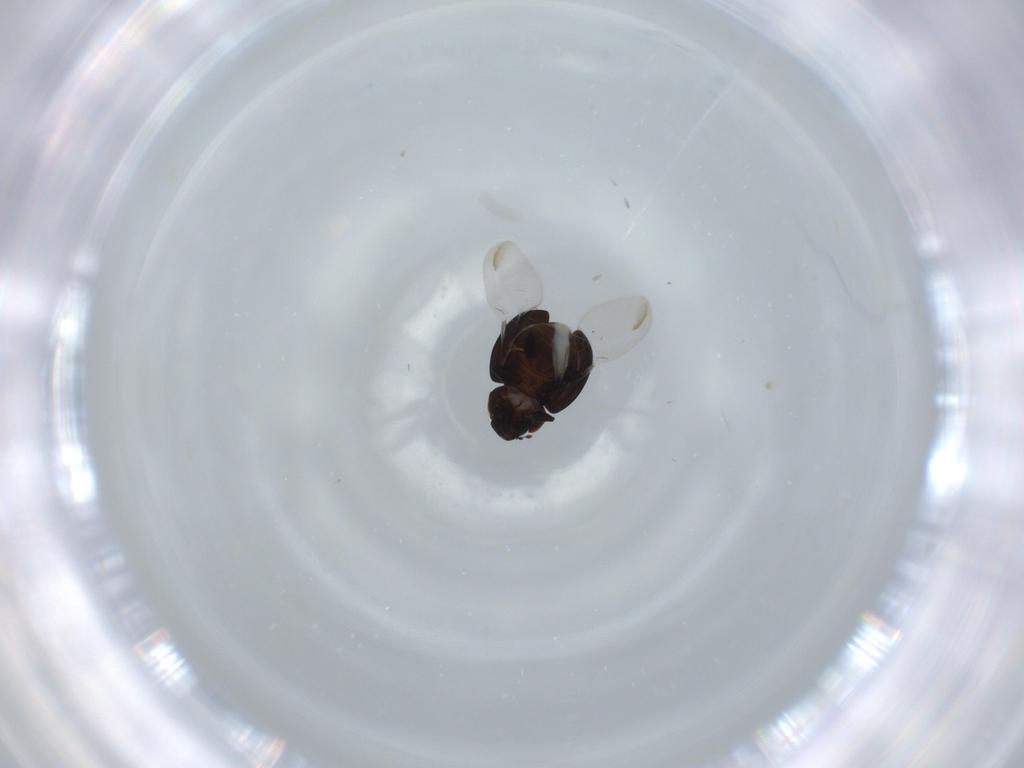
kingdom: Animalia
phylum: Arthropoda
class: Insecta
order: Coleoptera
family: Coccinellidae
